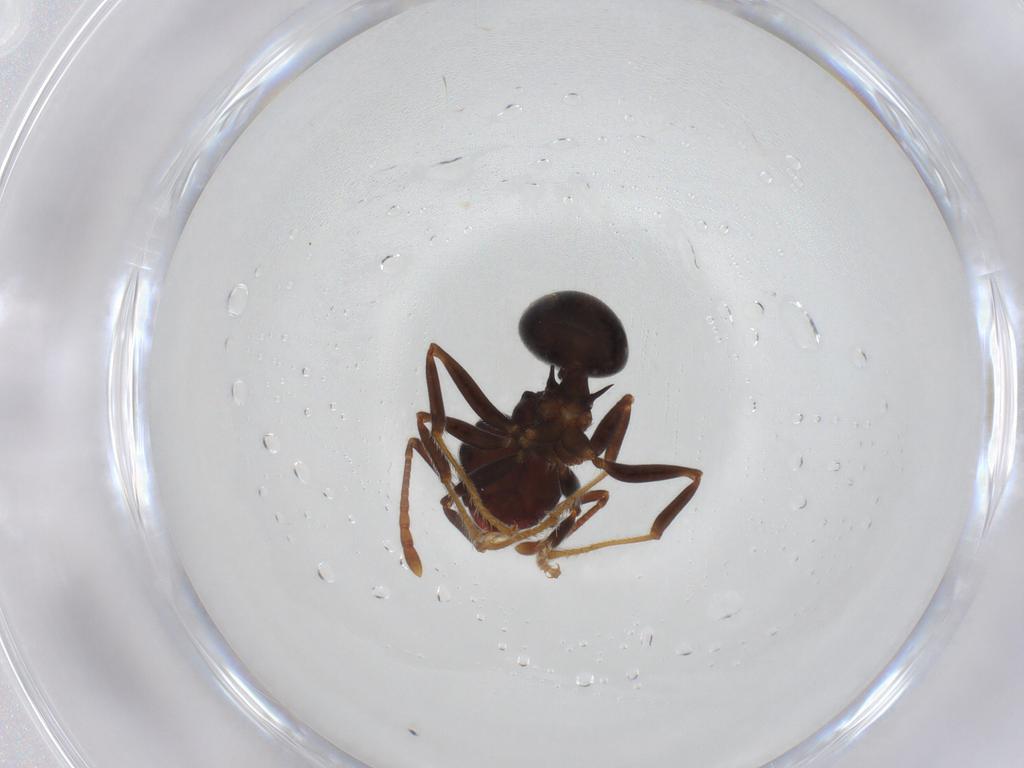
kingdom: Animalia
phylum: Arthropoda
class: Insecta
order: Hymenoptera
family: Formicidae
